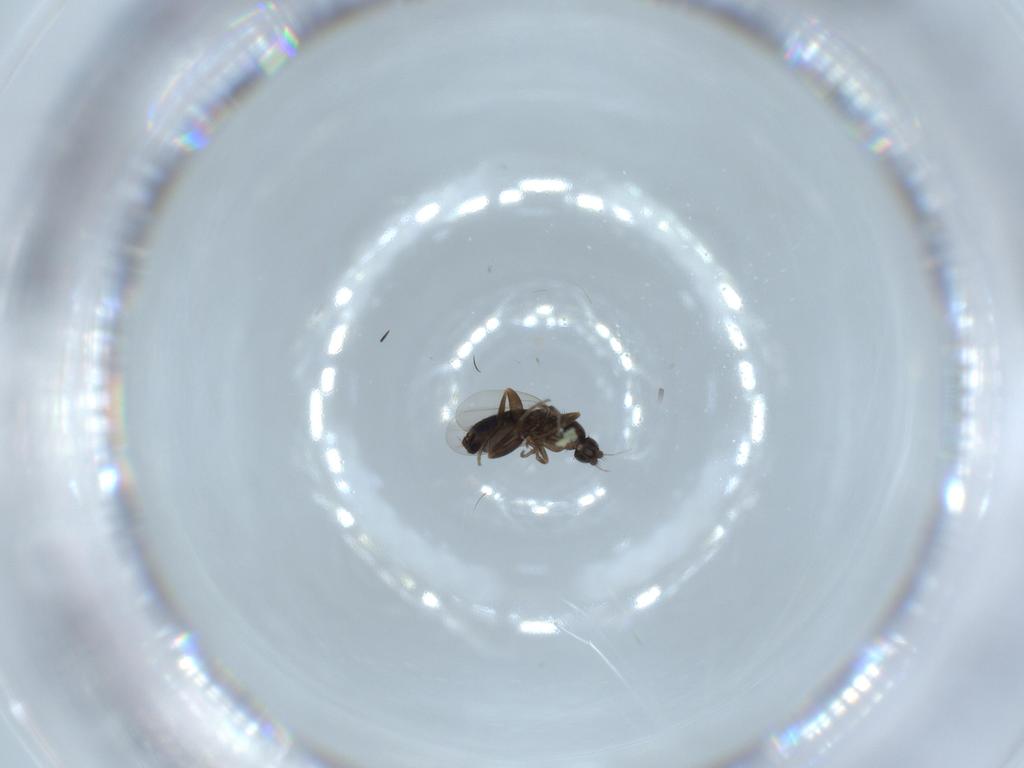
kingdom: Animalia
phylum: Arthropoda
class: Insecta
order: Diptera
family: Phoridae
